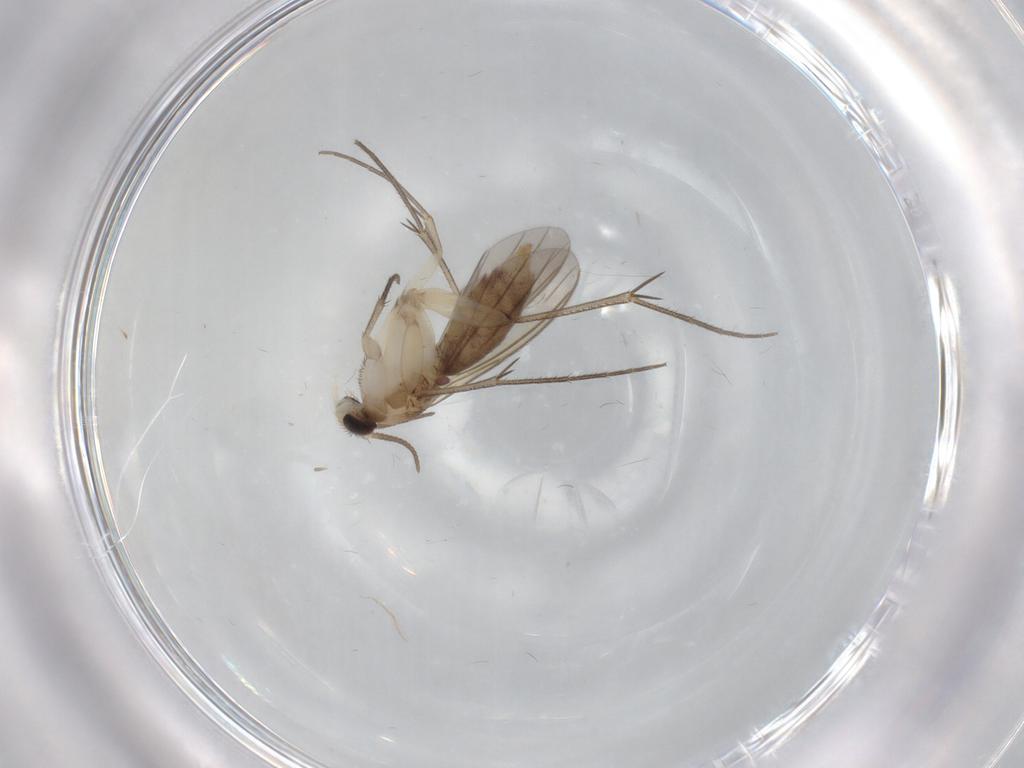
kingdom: Animalia
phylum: Arthropoda
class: Insecta
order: Diptera
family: Mycetophilidae
